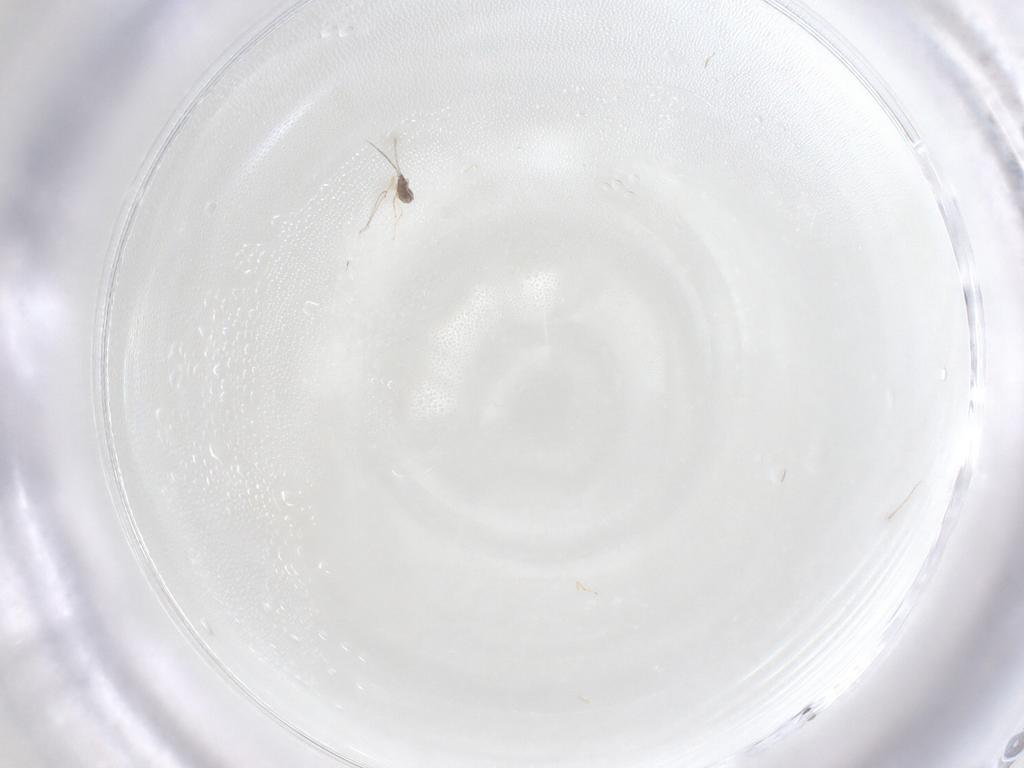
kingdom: Animalia
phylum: Arthropoda
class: Insecta
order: Hymenoptera
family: Mymaridae
